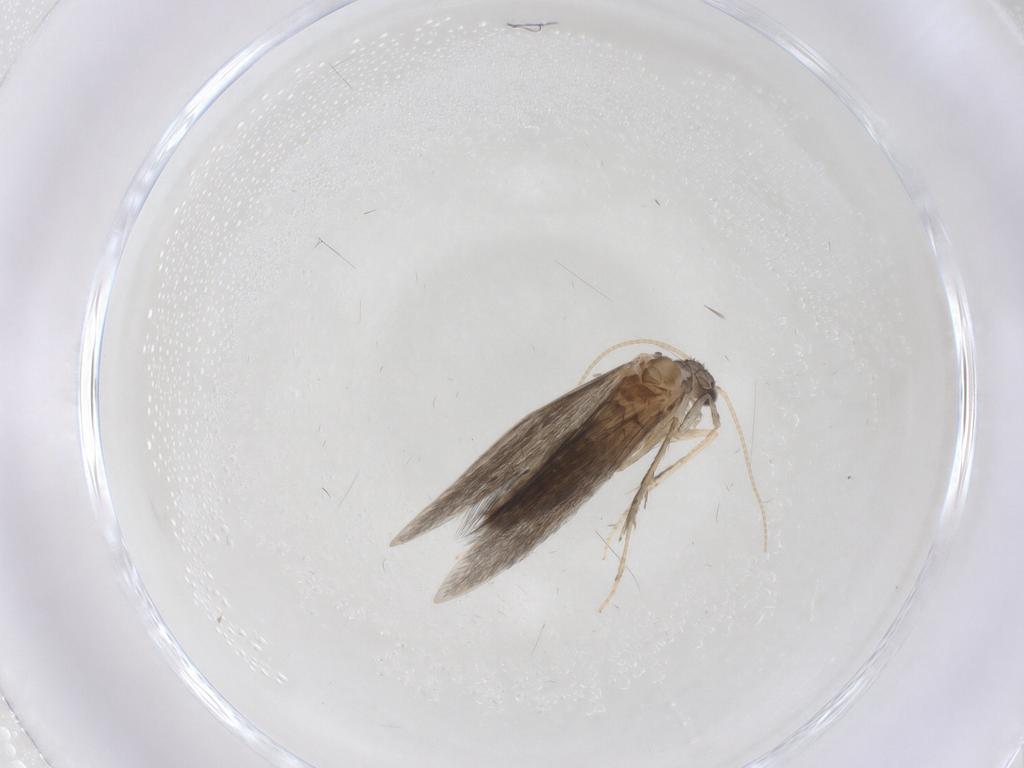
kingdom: Animalia
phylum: Arthropoda
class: Insecta
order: Trichoptera
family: Hydroptilidae
